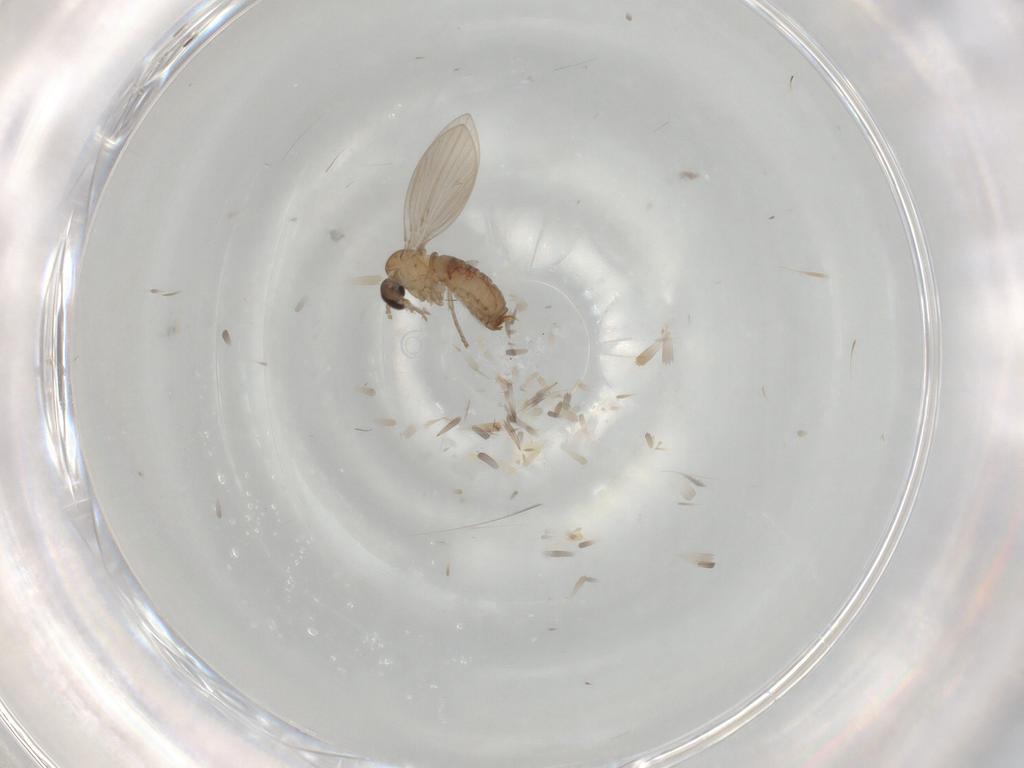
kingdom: Animalia
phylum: Arthropoda
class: Insecta
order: Diptera
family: Psychodidae
